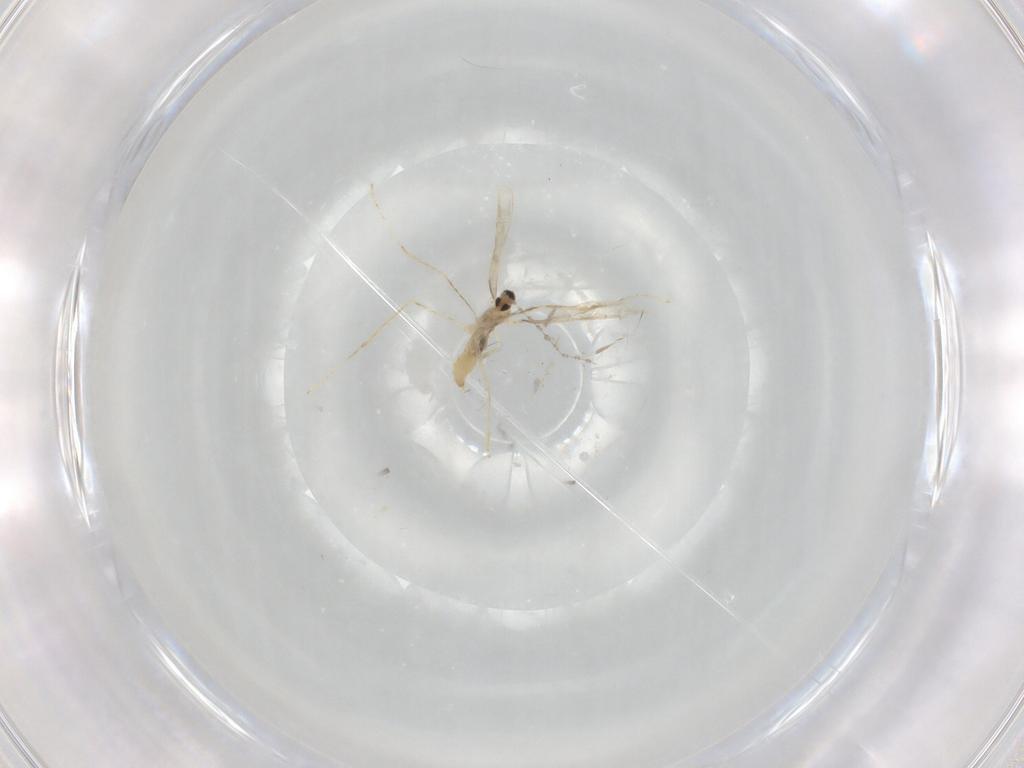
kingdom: Animalia
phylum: Arthropoda
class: Insecta
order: Diptera
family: Cecidomyiidae
